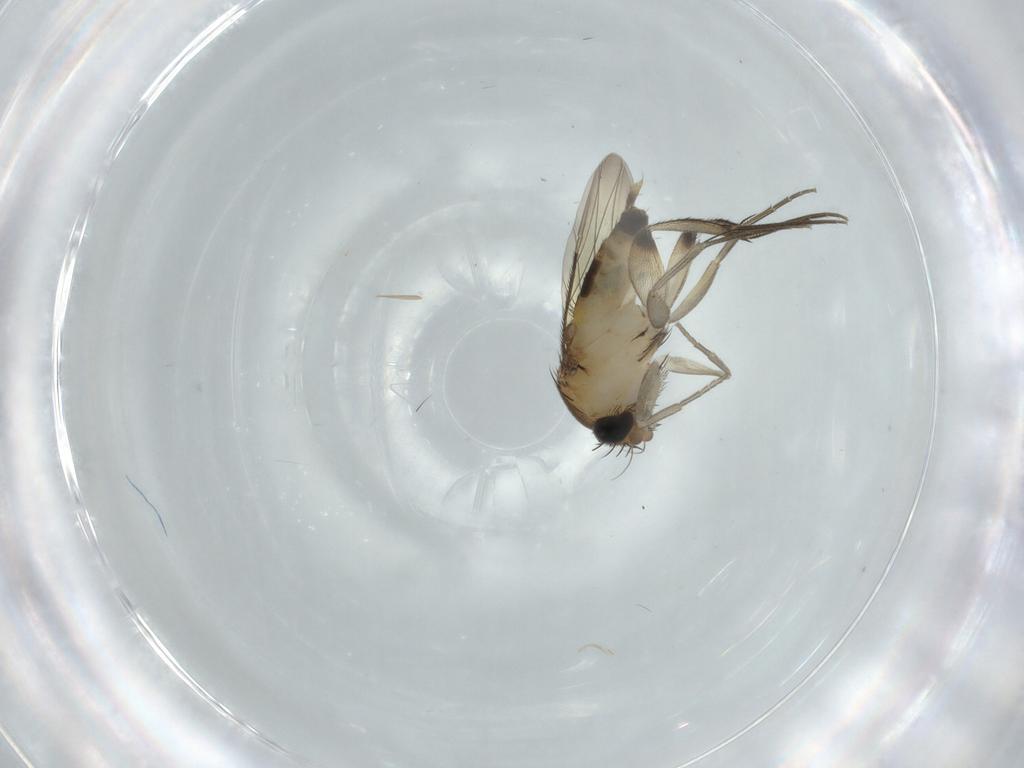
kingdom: Animalia
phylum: Arthropoda
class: Insecta
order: Diptera
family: Phoridae
